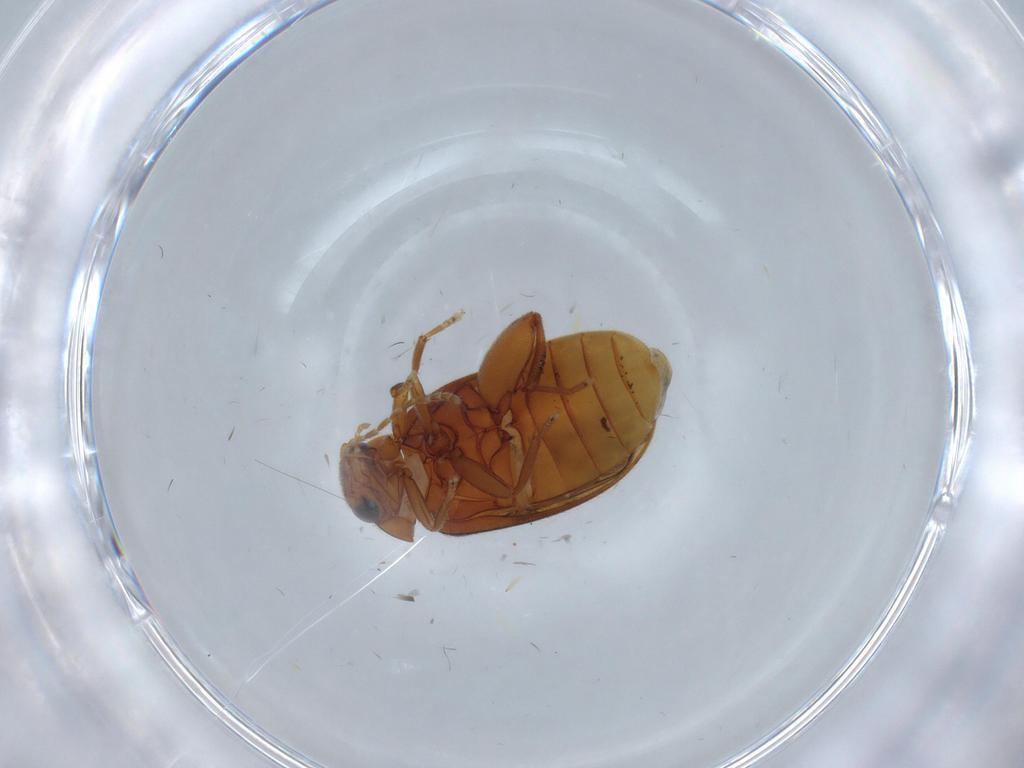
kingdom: Animalia
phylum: Arthropoda
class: Insecta
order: Coleoptera
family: Scirtidae
